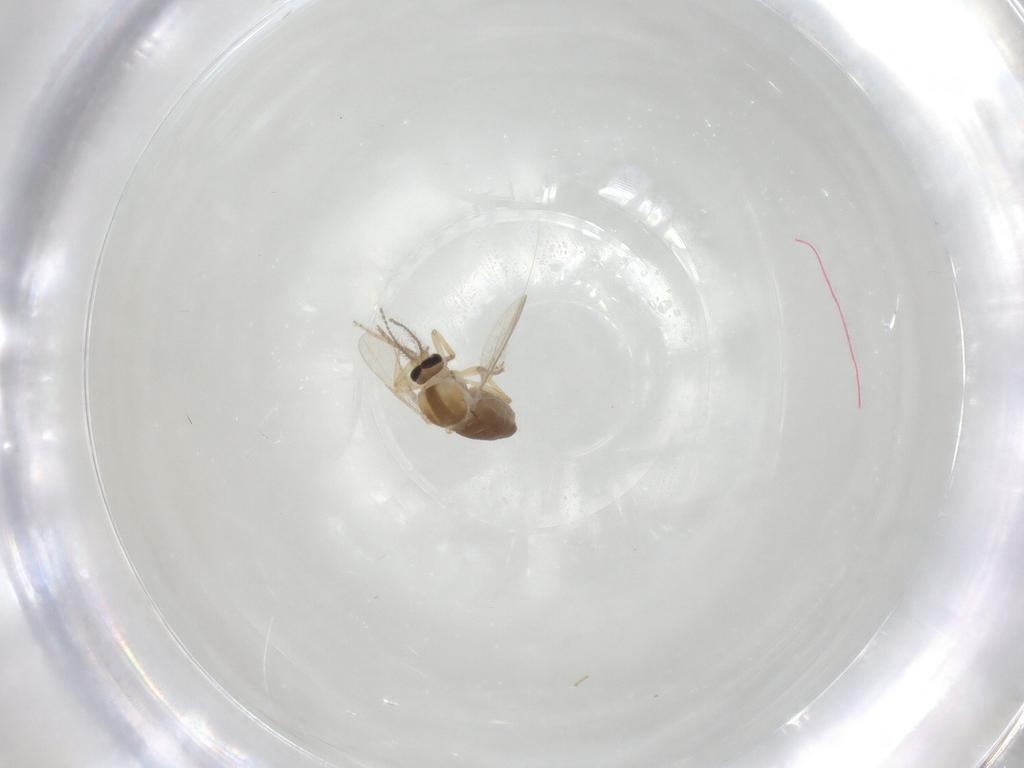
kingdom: Animalia
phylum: Arthropoda
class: Insecta
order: Diptera
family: Ceratopogonidae
